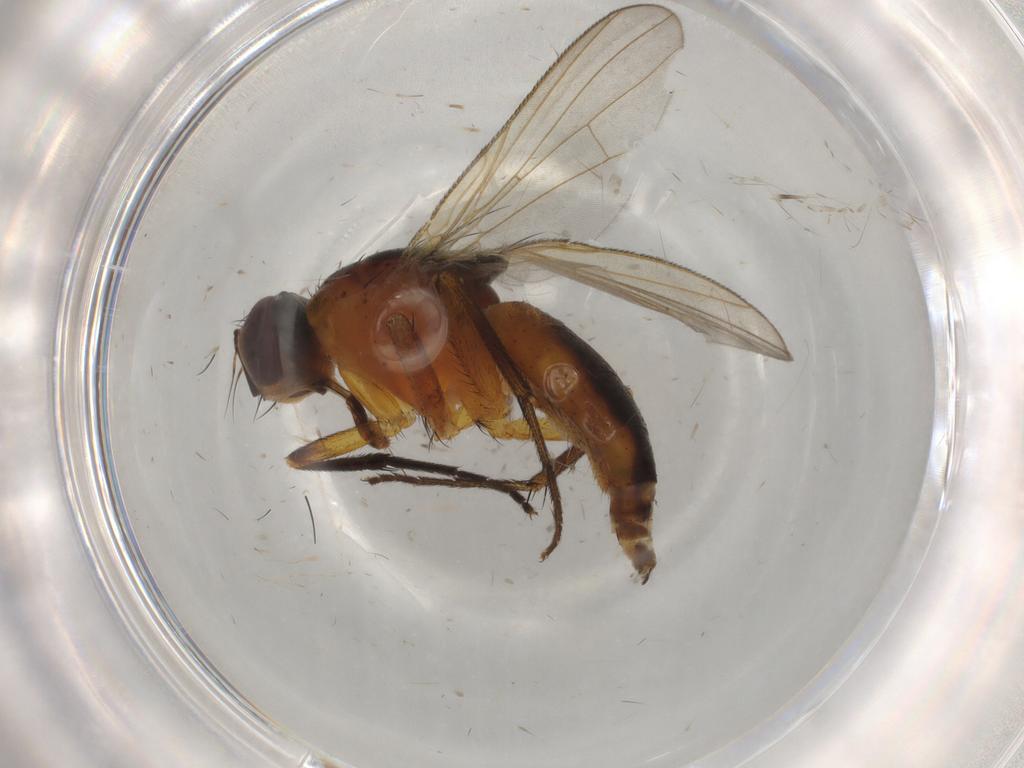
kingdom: Animalia
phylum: Arthropoda
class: Insecta
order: Diptera
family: Muscidae
